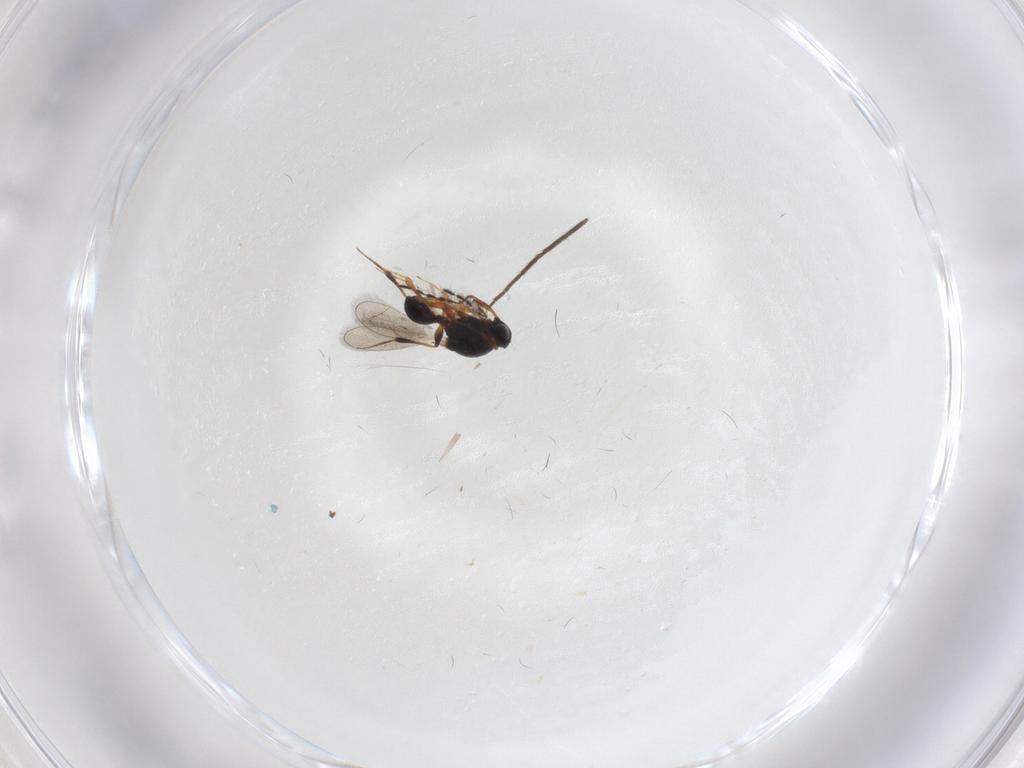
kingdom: Animalia
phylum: Arthropoda
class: Insecta
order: Hymenoptera
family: Platygastridae
